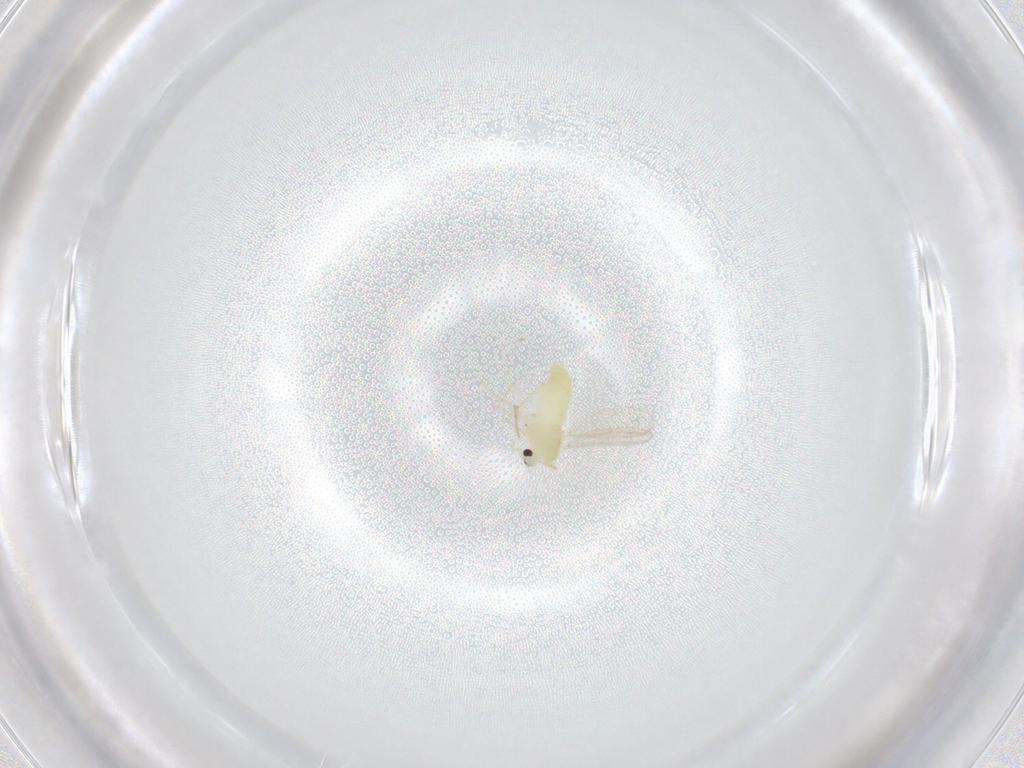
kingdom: Animalia
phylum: Arthropoda
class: Insecta
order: Diptera
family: Chironomidae
